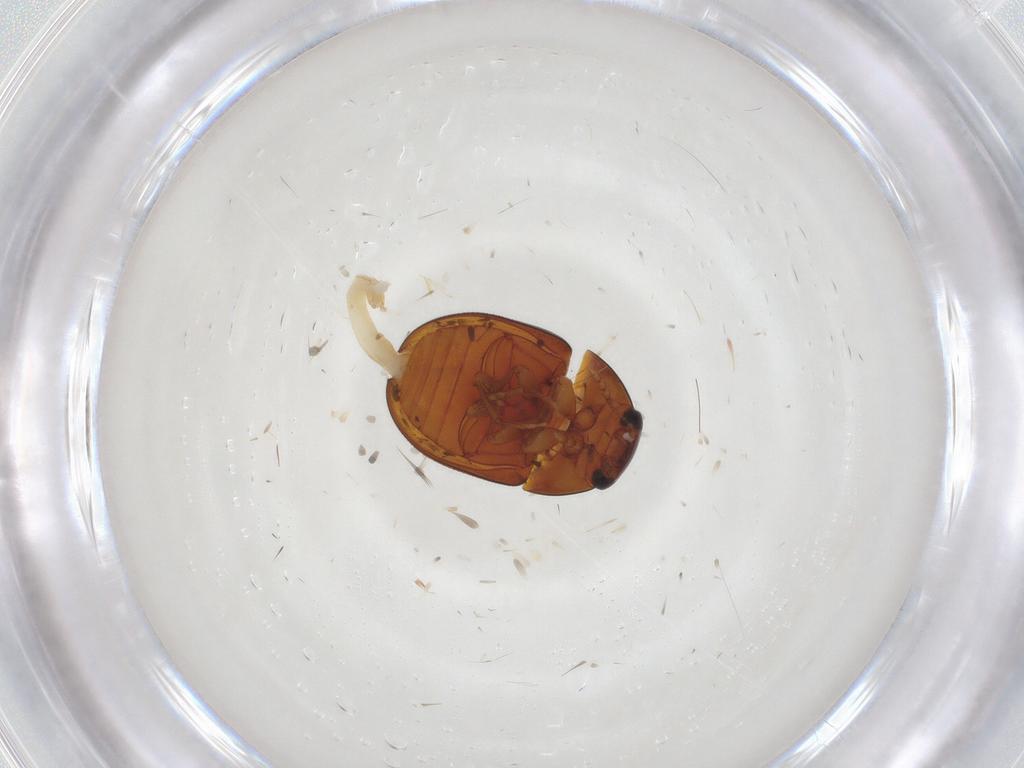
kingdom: Animalia
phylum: Arthropoda
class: Insecta
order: Coleoptera
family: Phalacridae
